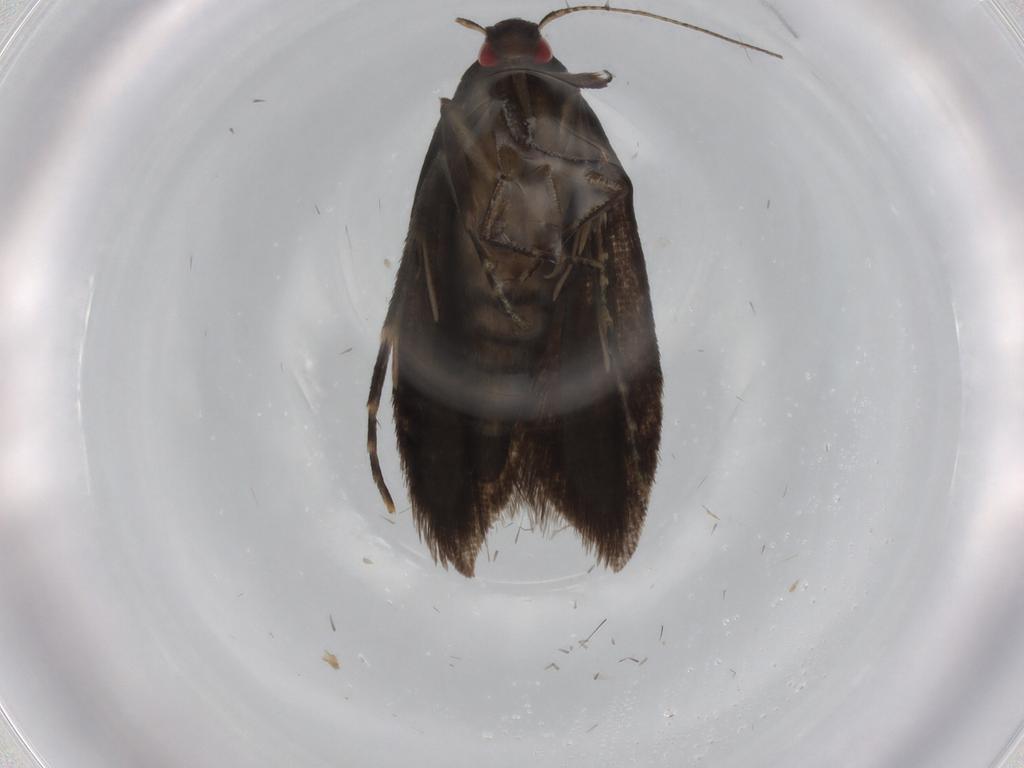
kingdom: Animalia
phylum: Arthropoda
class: Insecta
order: Lepidoptera
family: Gelechiidae
